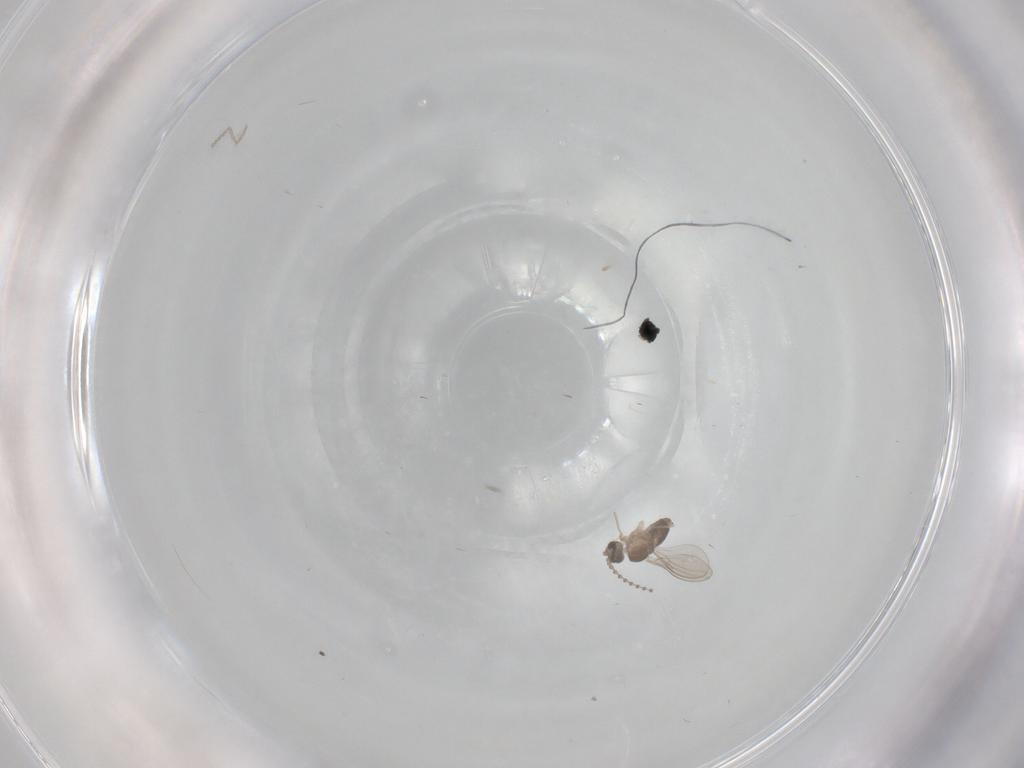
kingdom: Animalia
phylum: Arthropoda
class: Insecta
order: Diptera
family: Sciaridae
